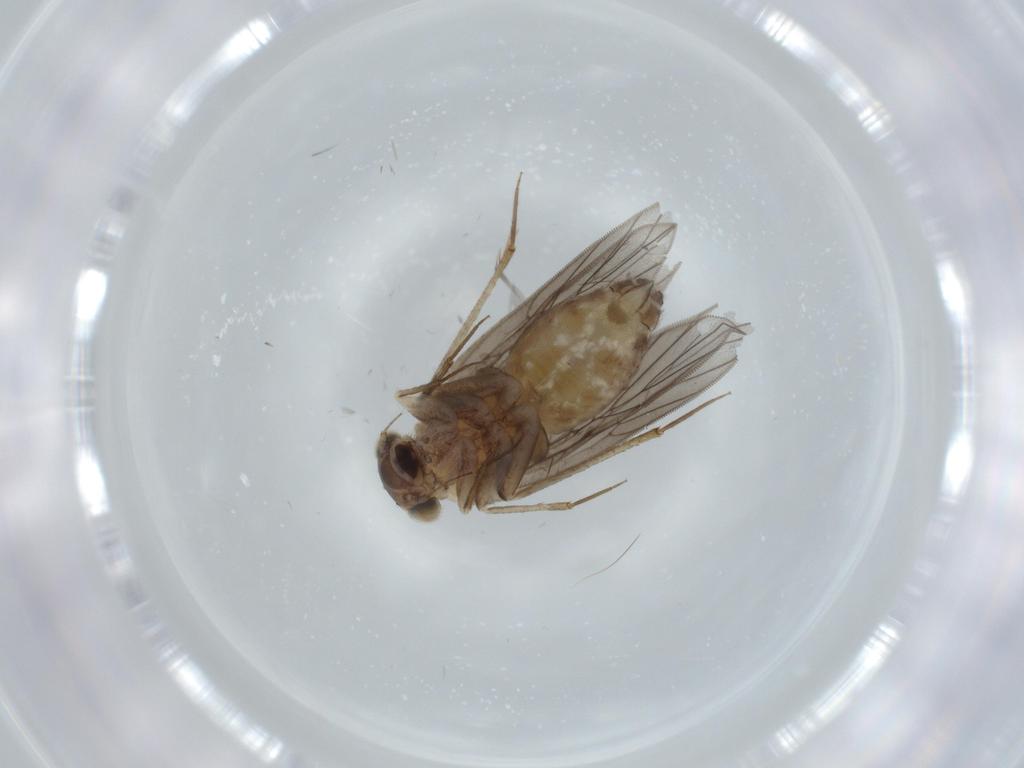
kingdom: Animalia
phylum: Arthropoda
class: Insecta
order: Psocodea
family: Lepidopsocidae
